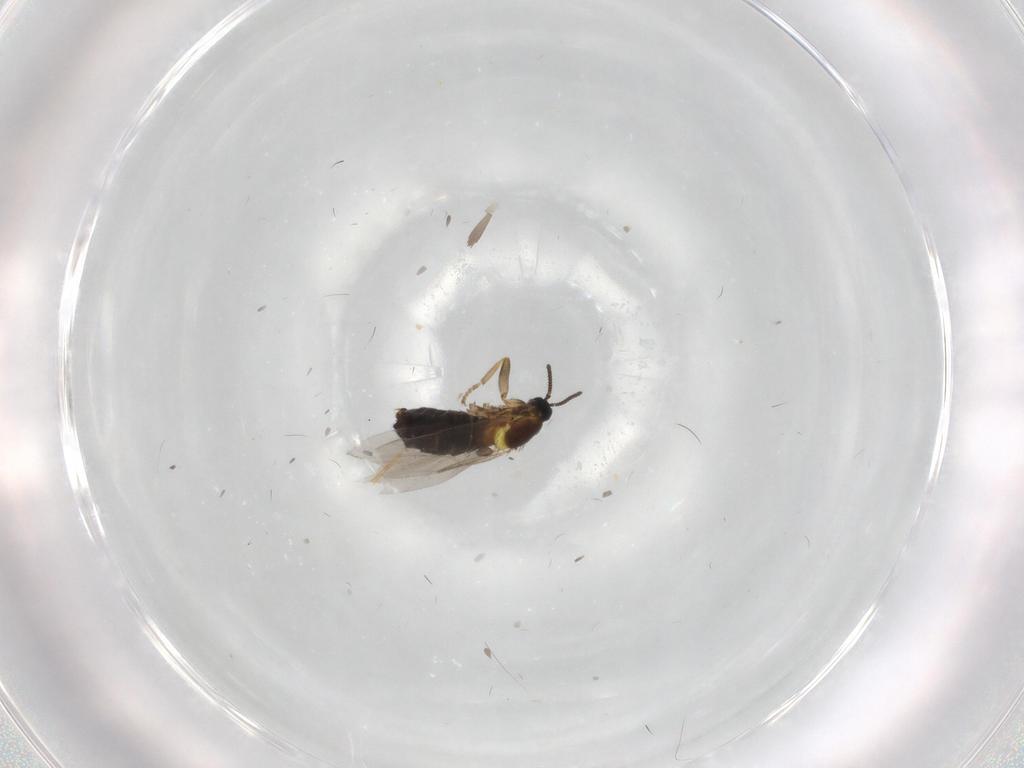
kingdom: Animalia
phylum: Arthropoda
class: Insecta
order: Diptera
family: Scatopsidae
